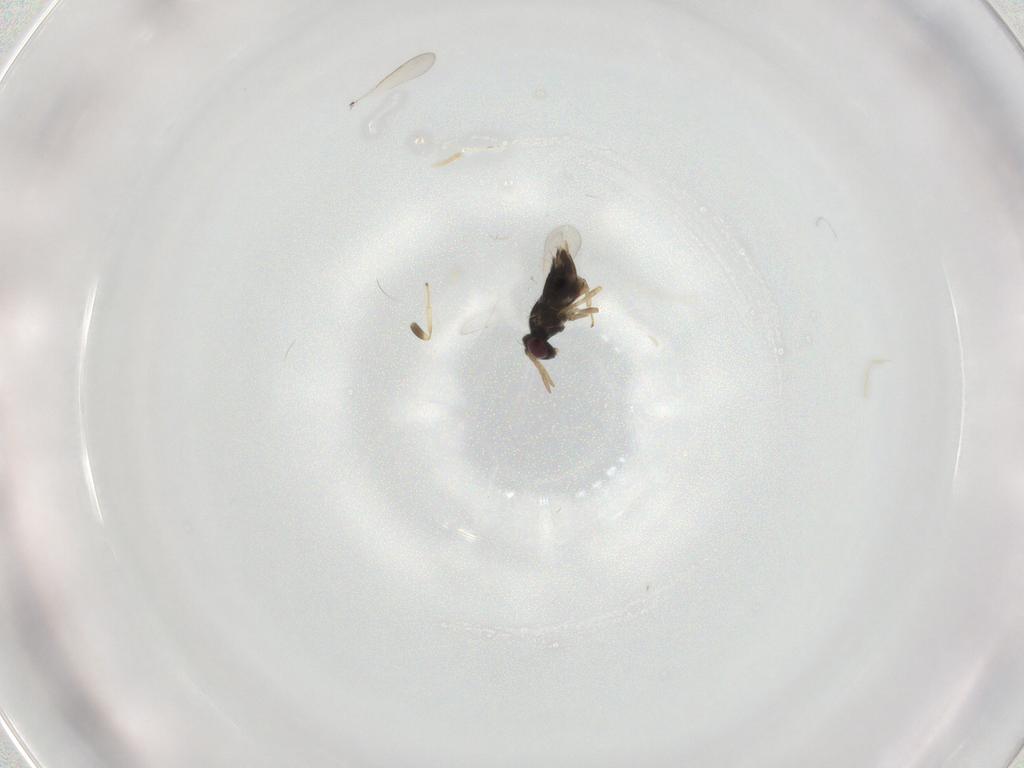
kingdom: Animalia
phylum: Arthropoda
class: Insecta
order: Hymenoptera
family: Aphelinidae
